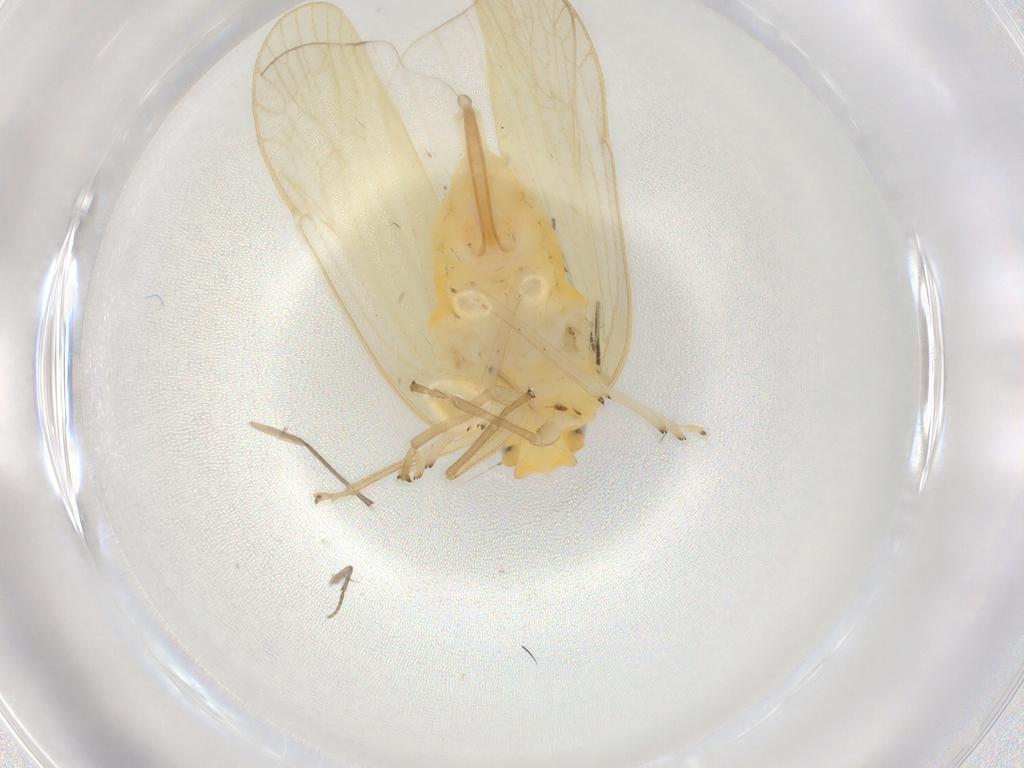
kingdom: Animalia
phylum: Arthropoda
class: Insecta
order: Hemiptera
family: Cixiidae
